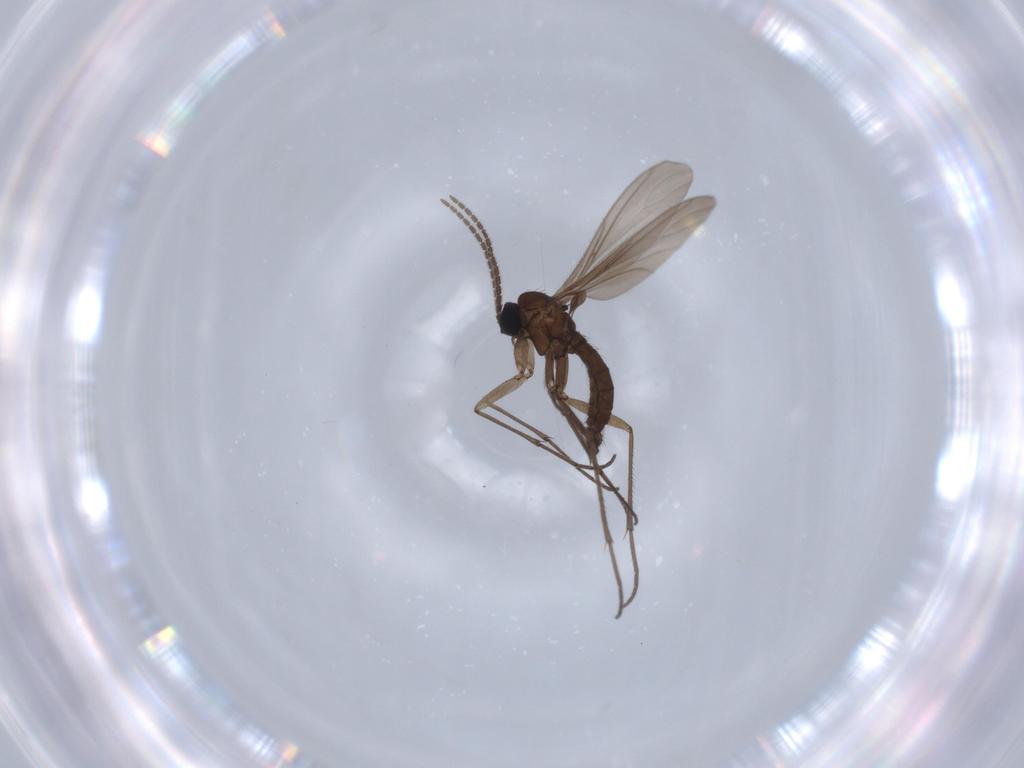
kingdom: Animalia
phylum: Arthropoda
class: Insecta
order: Diptera
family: Sciaridae
